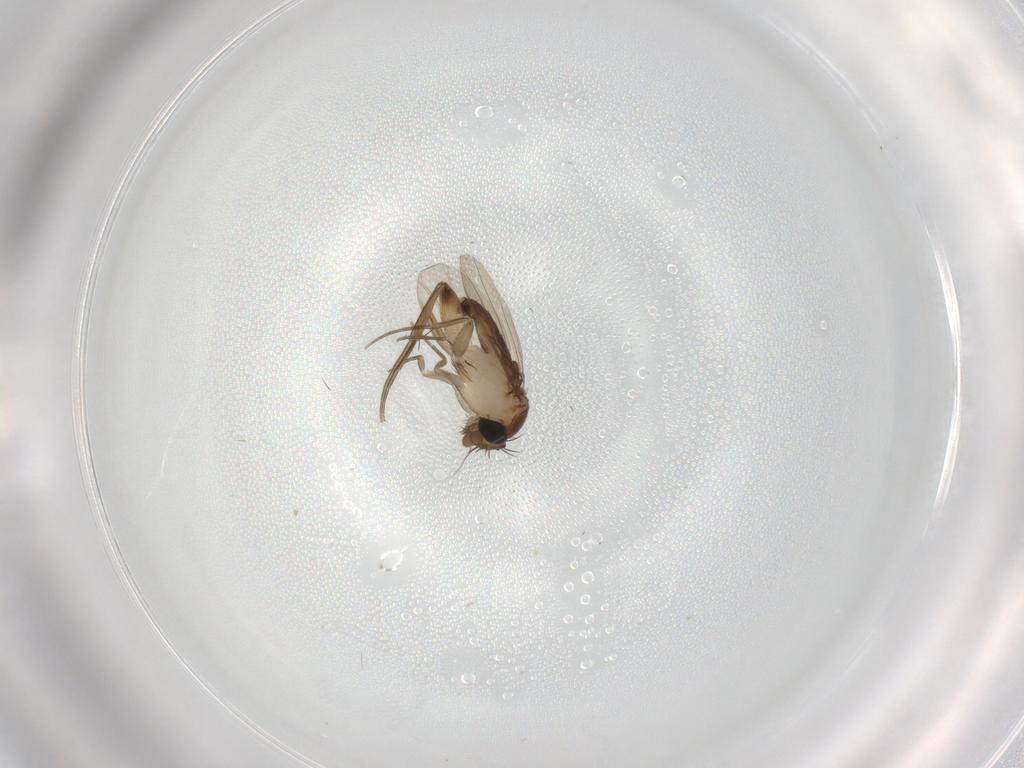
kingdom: Animalia
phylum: Arthropoda
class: Insecta
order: Diptera
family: Phoridae
